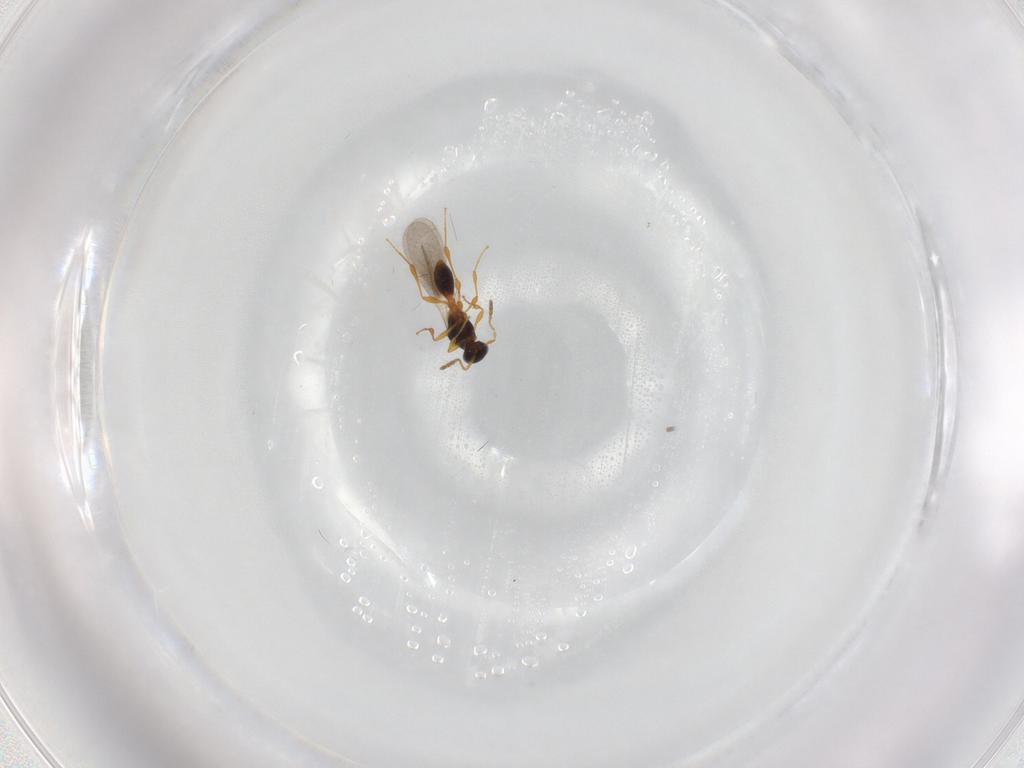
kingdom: Animalia
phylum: Arthropoda
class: Insecta
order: Hymenoptera
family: Platygastridae
